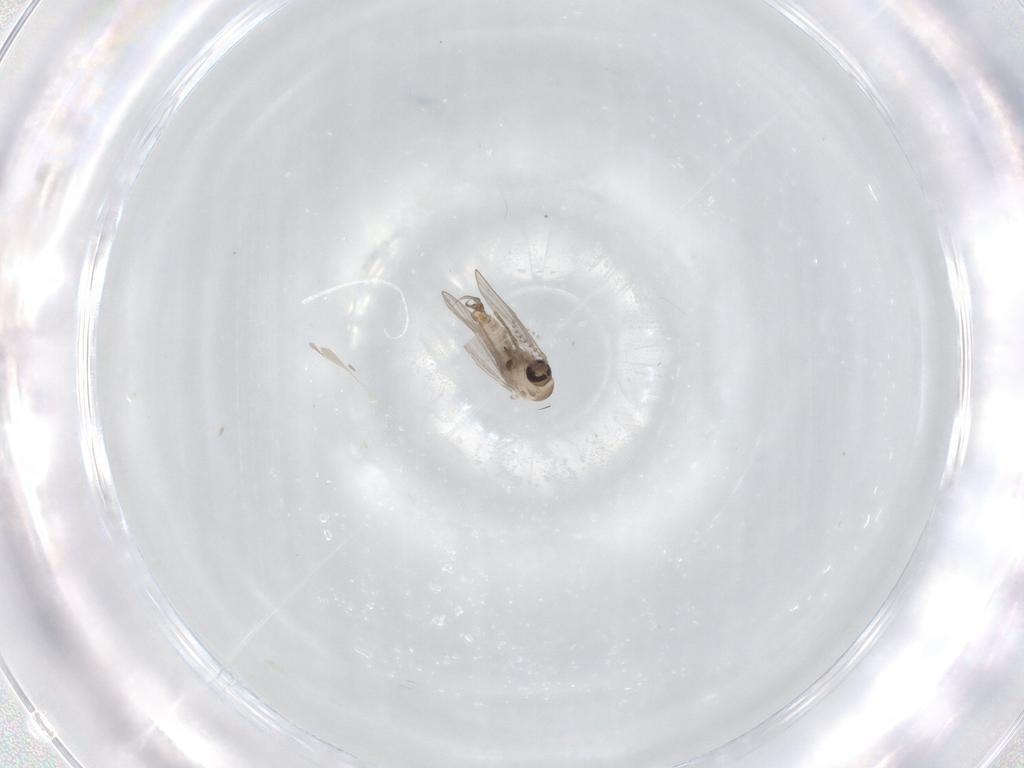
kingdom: Animalia
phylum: Arthropoda
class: Insecta
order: Diptera
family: Psychodidae
